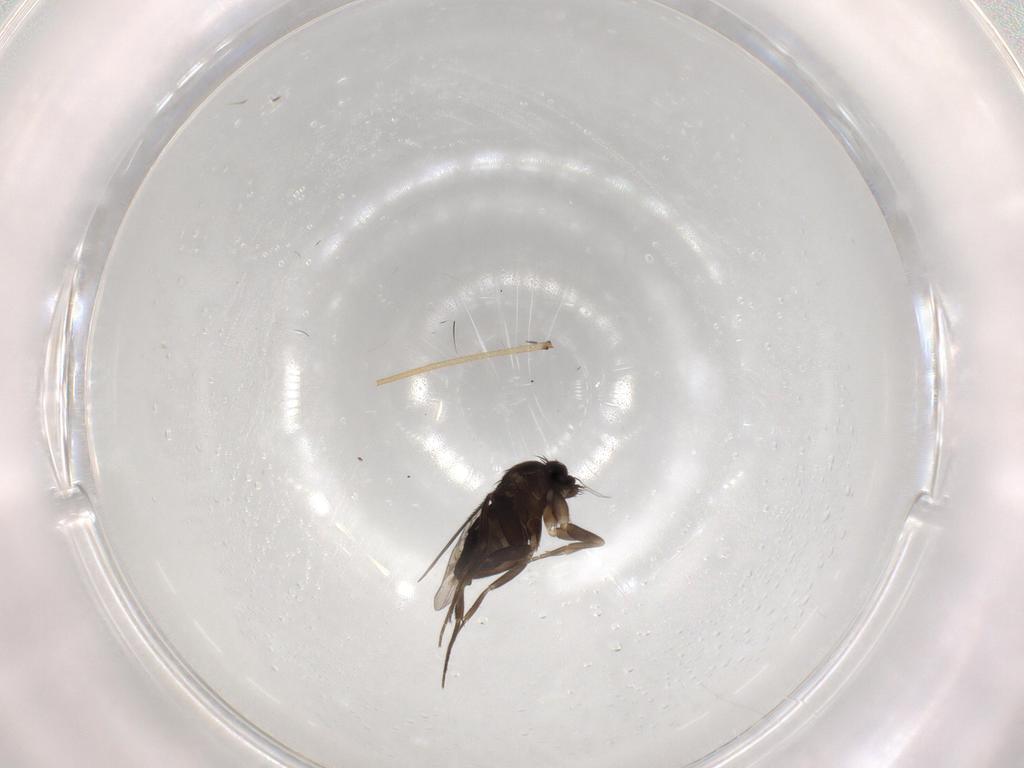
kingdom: Animalia
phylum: Arthropoda
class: Insecta
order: Diptera
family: Phoridae
